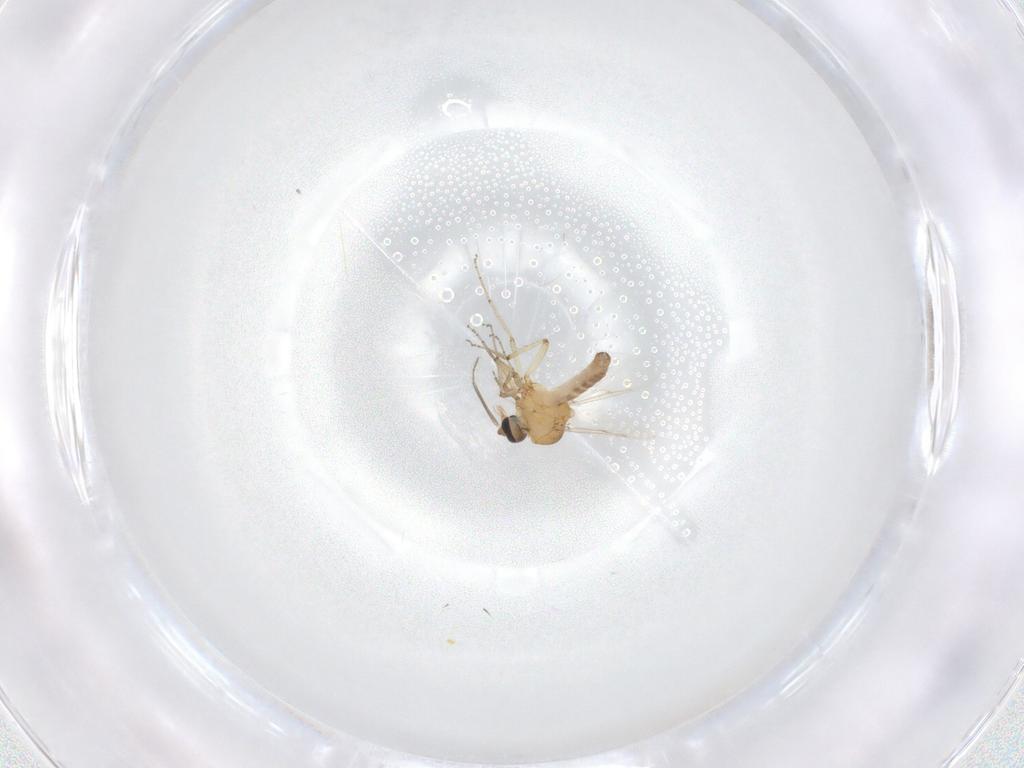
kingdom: Animalia
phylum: Arthropoda
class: Insecta
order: Diptera
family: Ceratopogonidae
